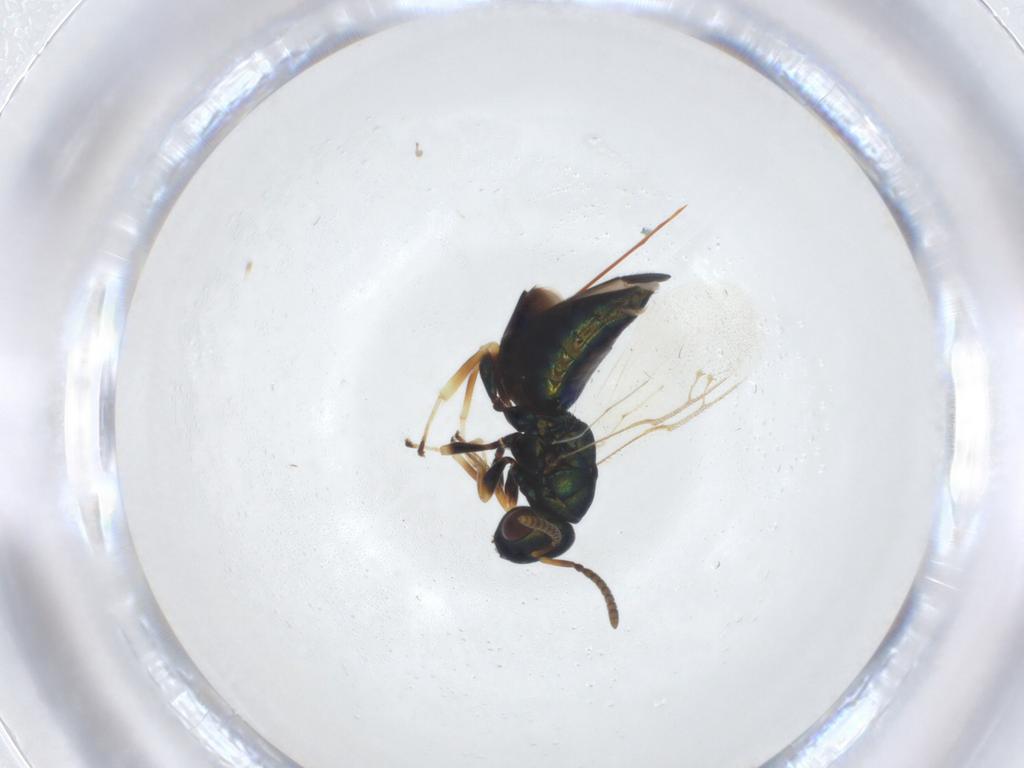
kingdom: Animalia
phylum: Arthropoda
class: Insecta
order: Hymenoptera
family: Pteromalidae
